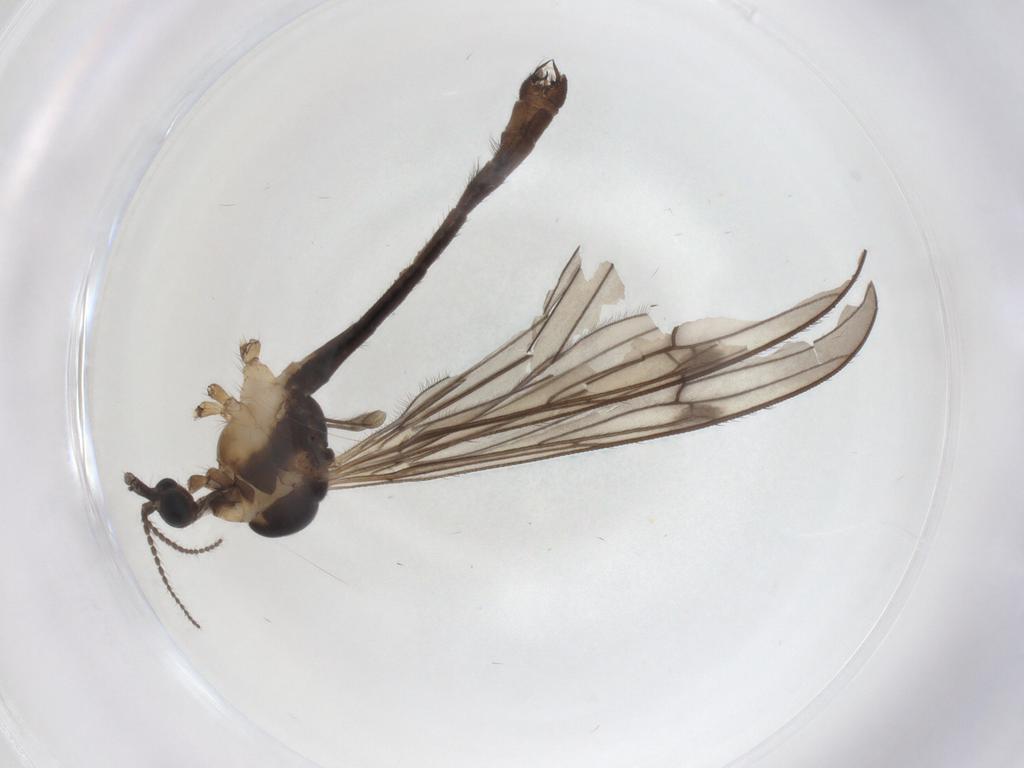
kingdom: Animalia
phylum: Arthropoda
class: Insecta
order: Diptera
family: Limoniidae
